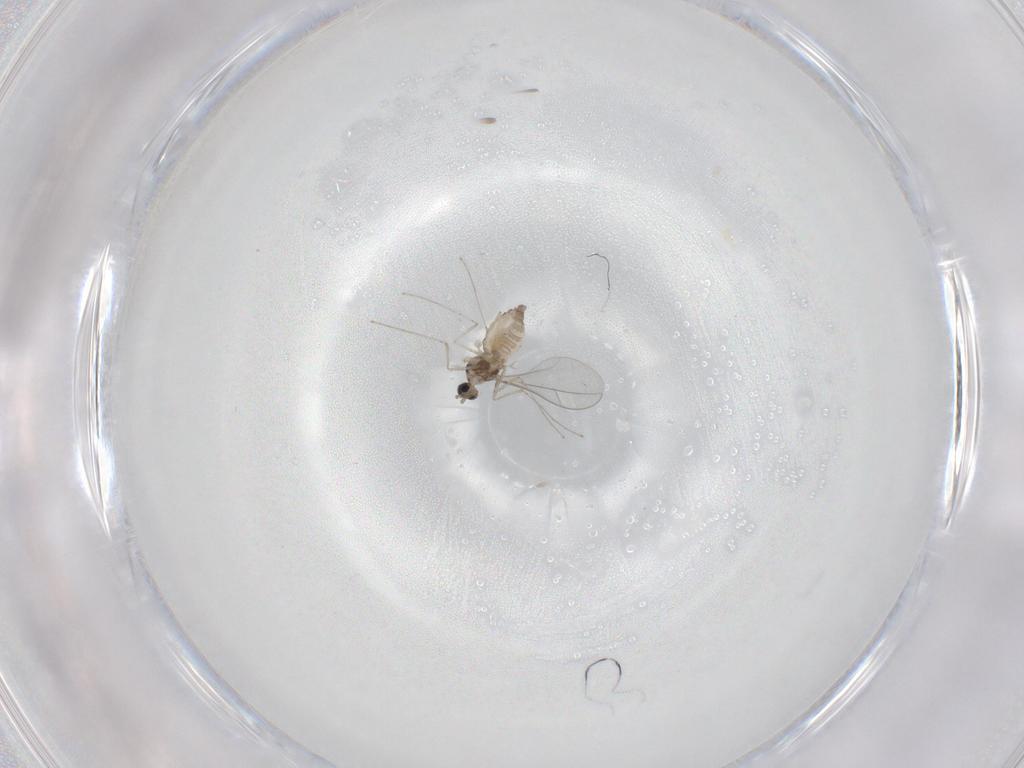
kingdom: Animalia
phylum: Arthropoda
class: Insecta
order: Diptera
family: Cecidomyiidae
